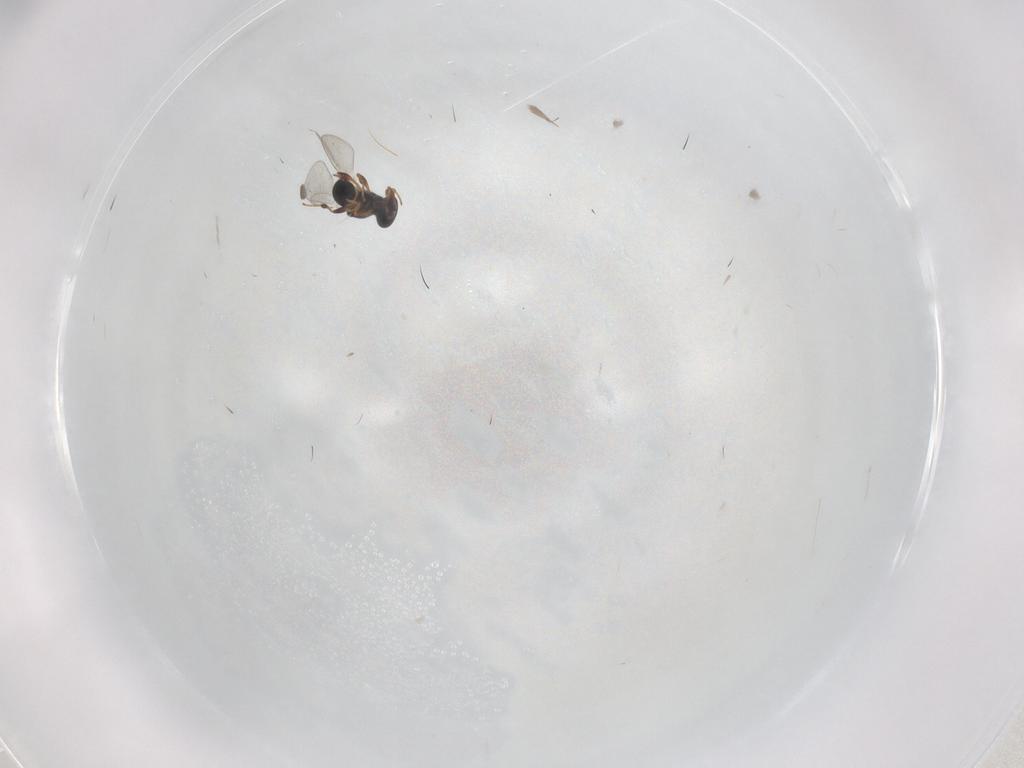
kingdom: Animalia
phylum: Arthropoda
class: Insecta
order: Hymenoptera
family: Platygastridae
